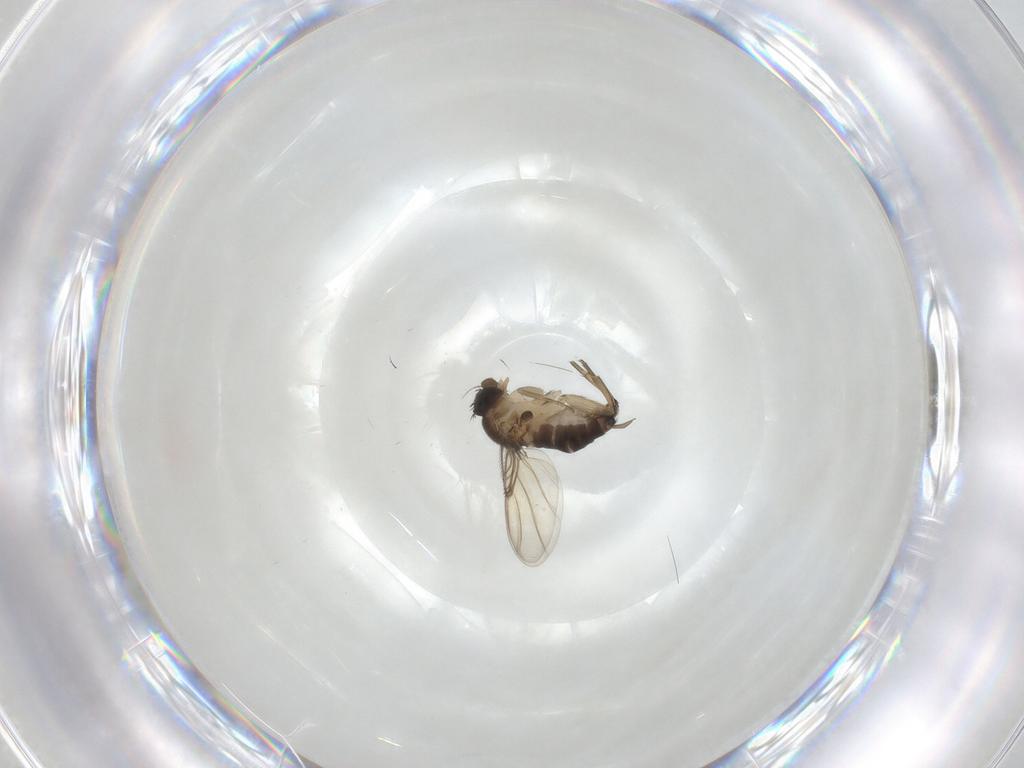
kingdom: Animalia
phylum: Arthropoda
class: Insecta
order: Diptera
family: Phoridae
